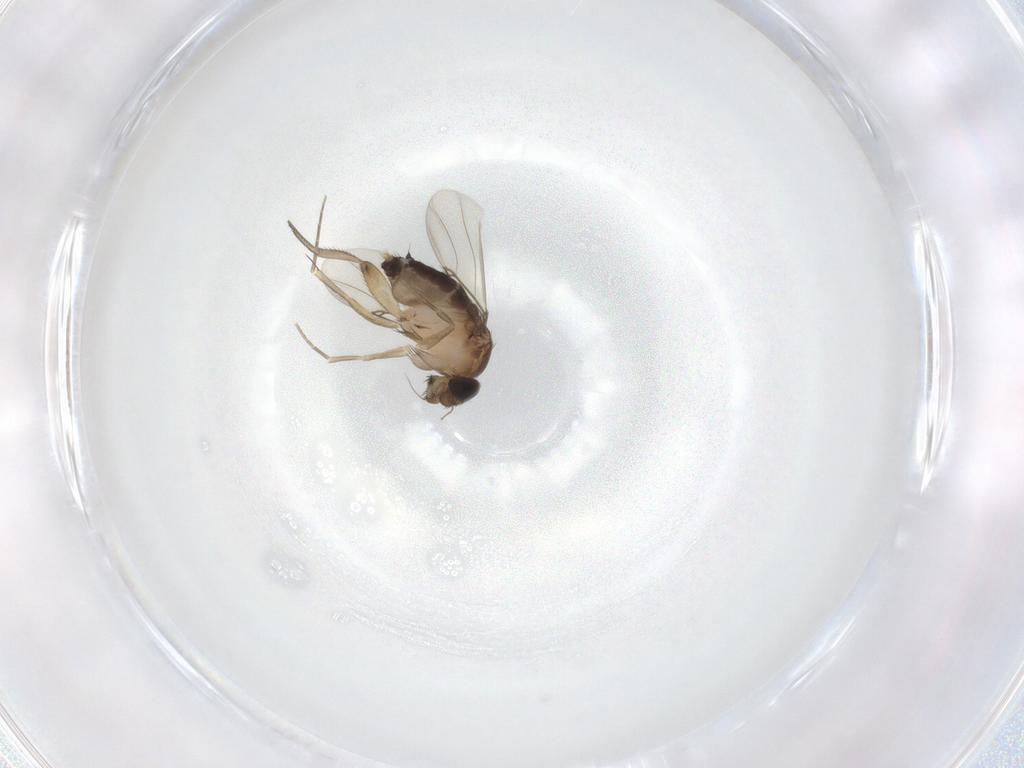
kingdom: Animalia
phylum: Arthropoda
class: Insecta
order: Diptera
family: Phoridae
